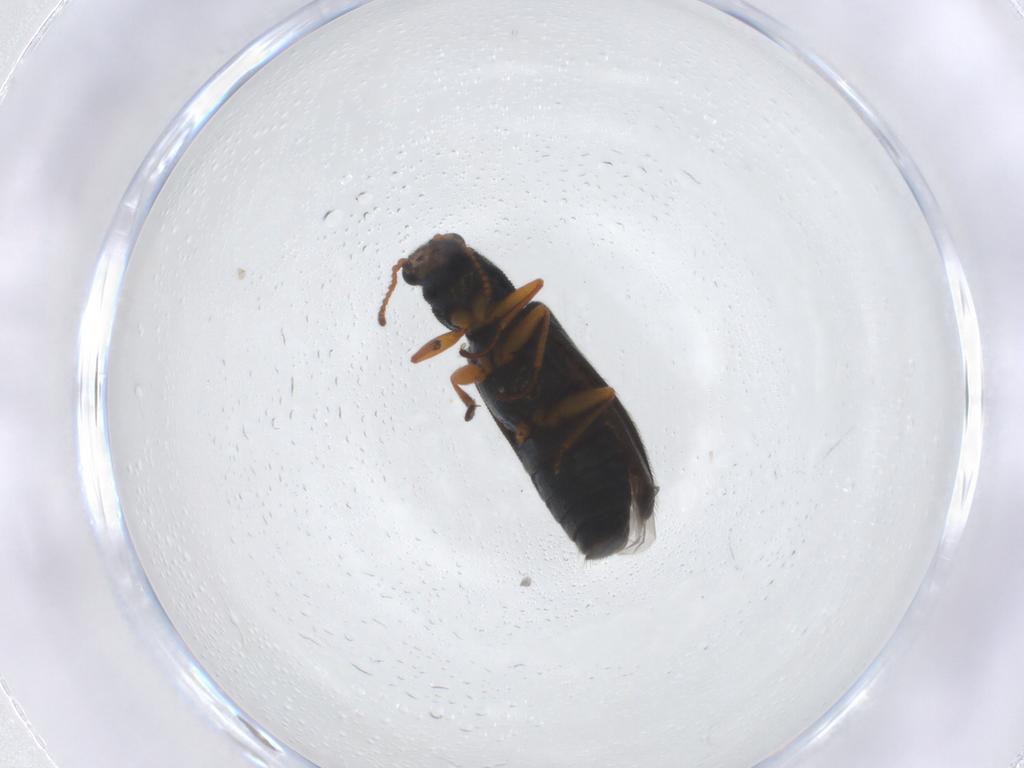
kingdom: Animalia
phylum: Arthropoda
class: Insecta
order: Coleoptera
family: Melyridae
